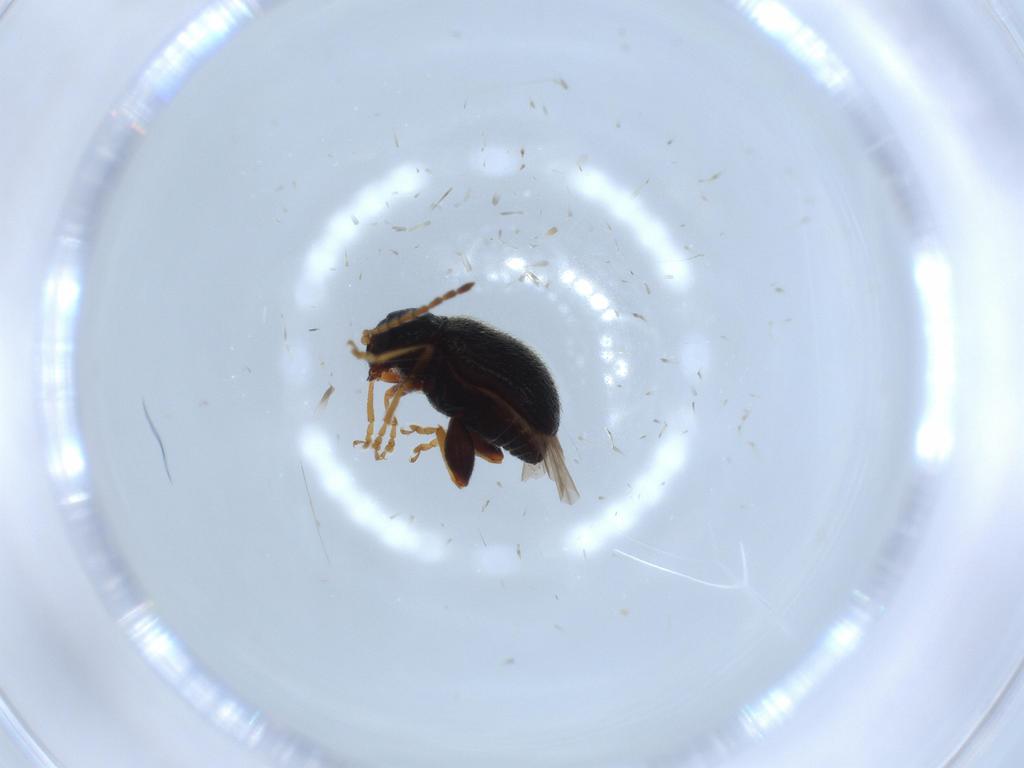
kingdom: Animalia
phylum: Arthropoda
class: Insecta
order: Coleoptera
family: Chrysomelidae
